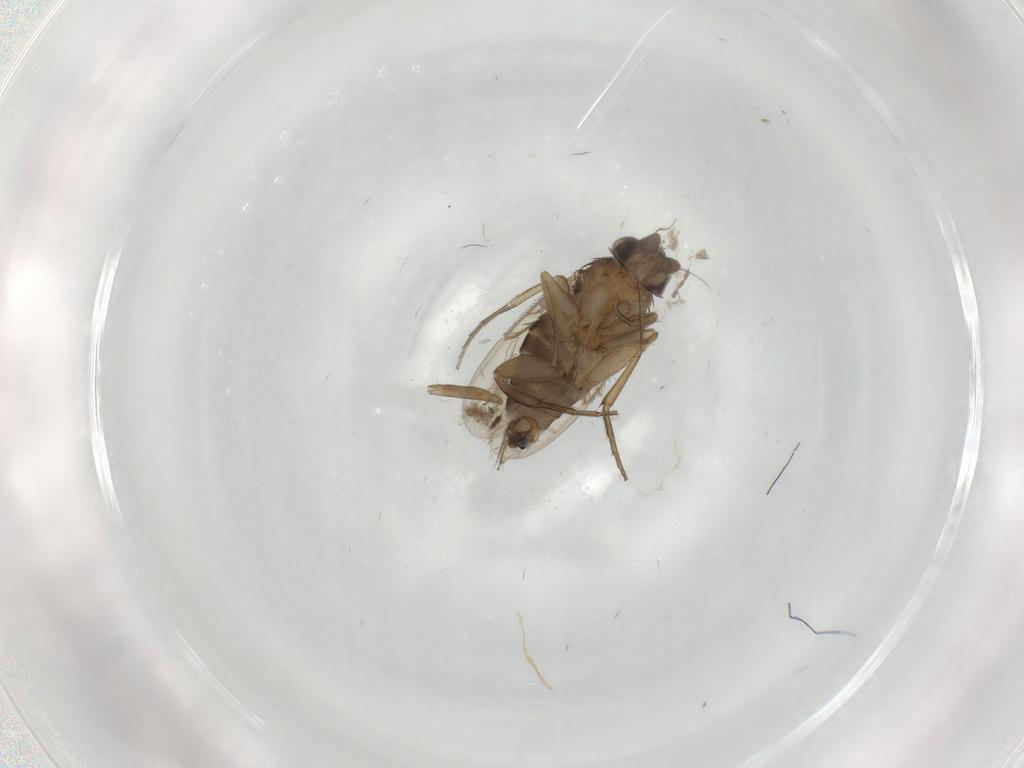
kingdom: Animalia
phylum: Arthropoda
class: Insecta
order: Diptera
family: Phoridae
